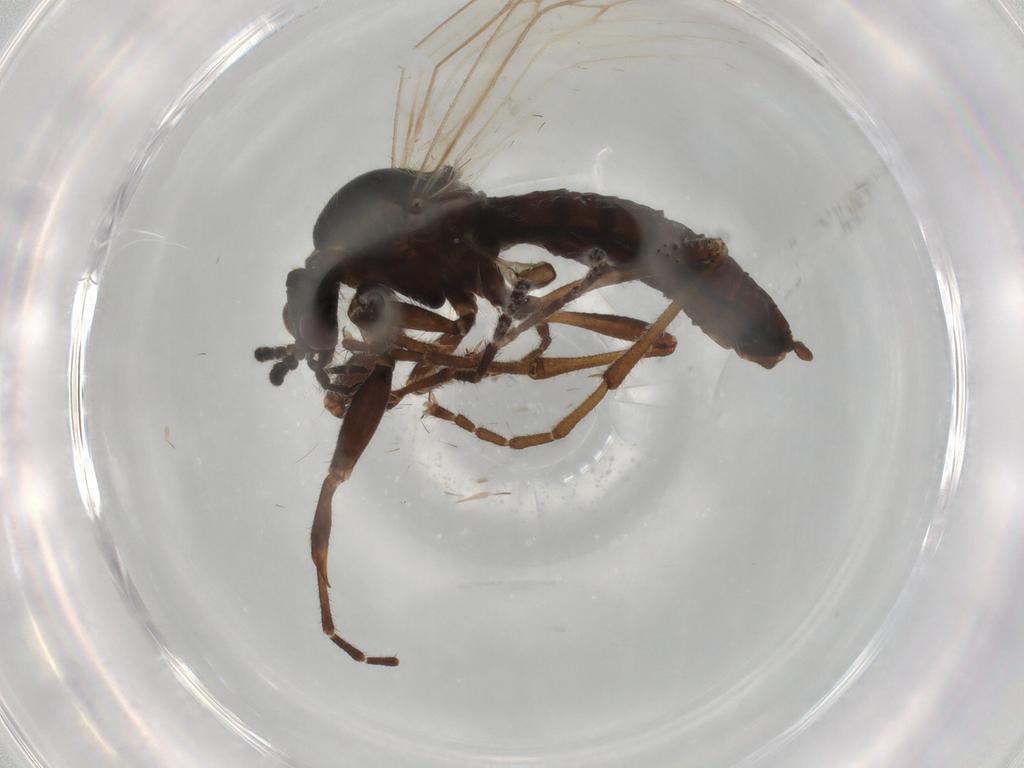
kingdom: Animalia
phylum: Arthropoda
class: Insecta
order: Diptera
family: Bibionidae
